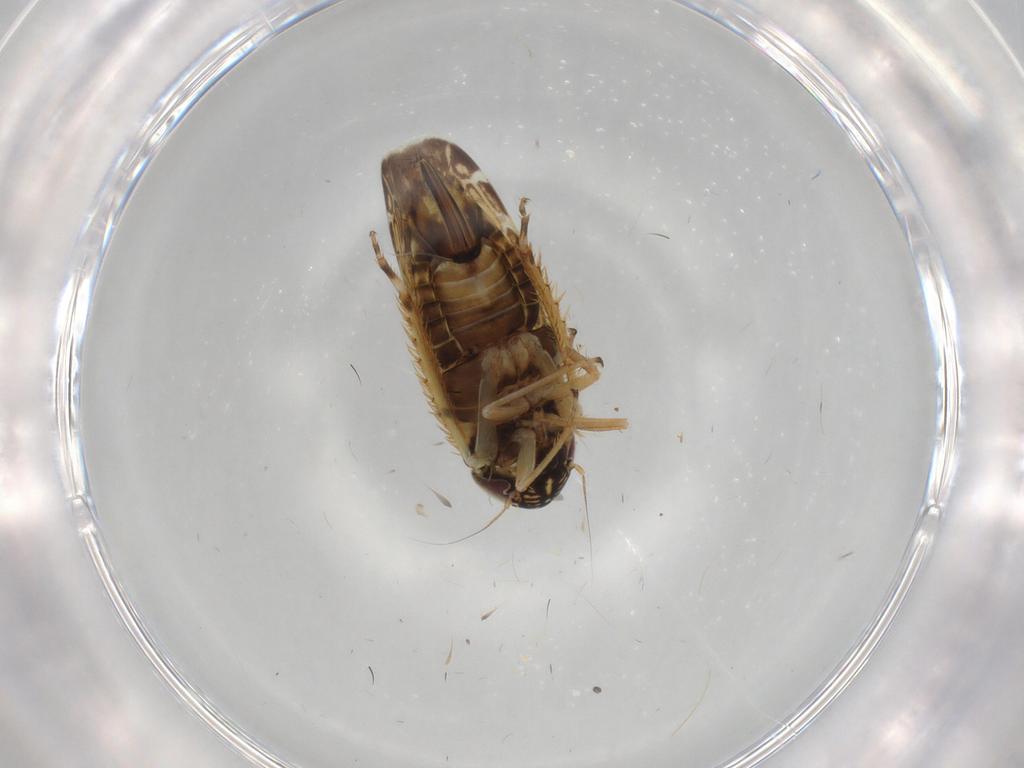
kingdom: Animalia
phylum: Arthropoda
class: Insecta
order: Hemiptera
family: Cicadellidae
